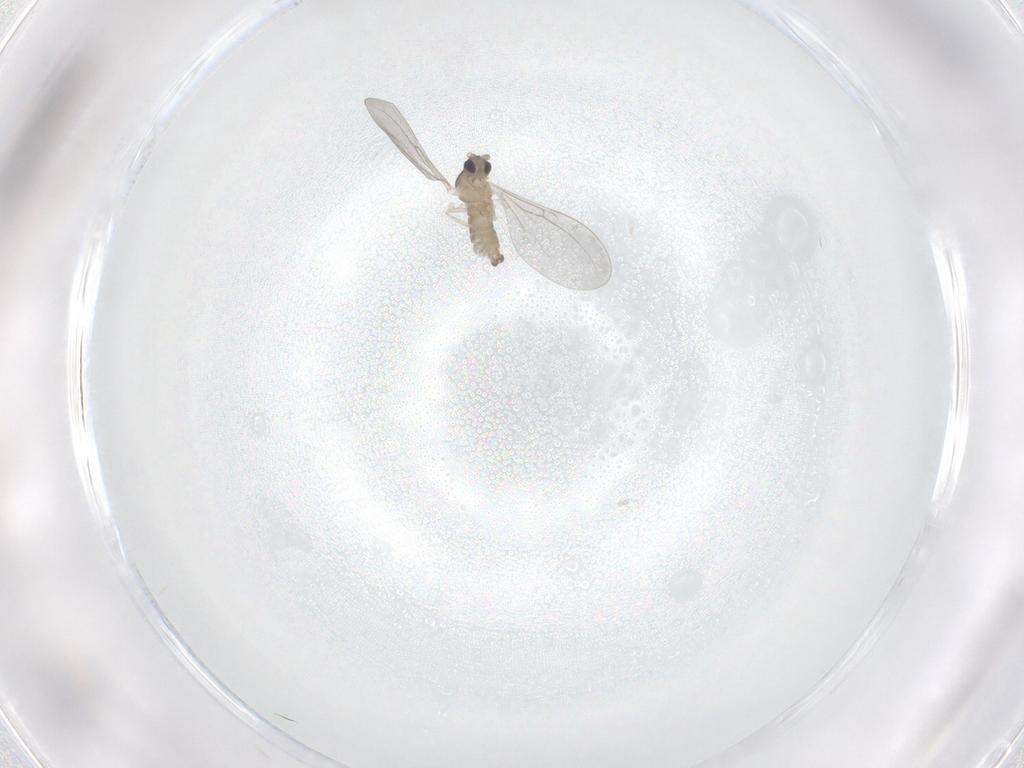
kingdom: Animalia
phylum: Arthropoda
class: Insecta
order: Diptera
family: Cecidomyiidae
